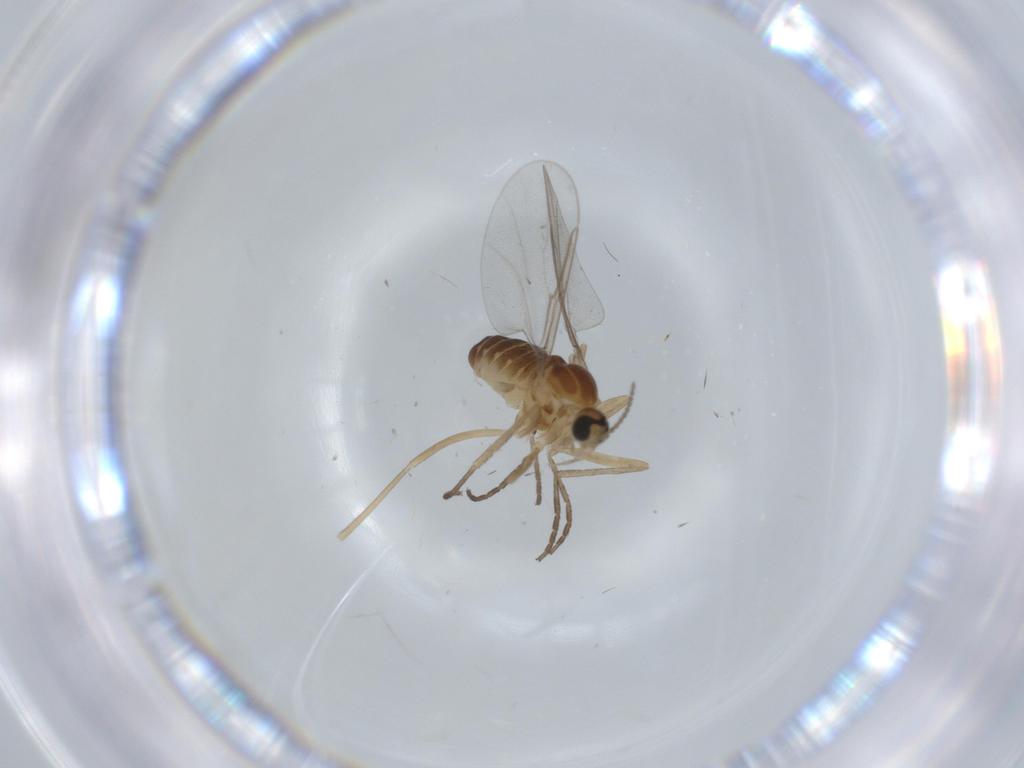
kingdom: Animalia
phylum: Arthropoda
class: Insecta
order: Diptera
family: Cecidomyiidae
